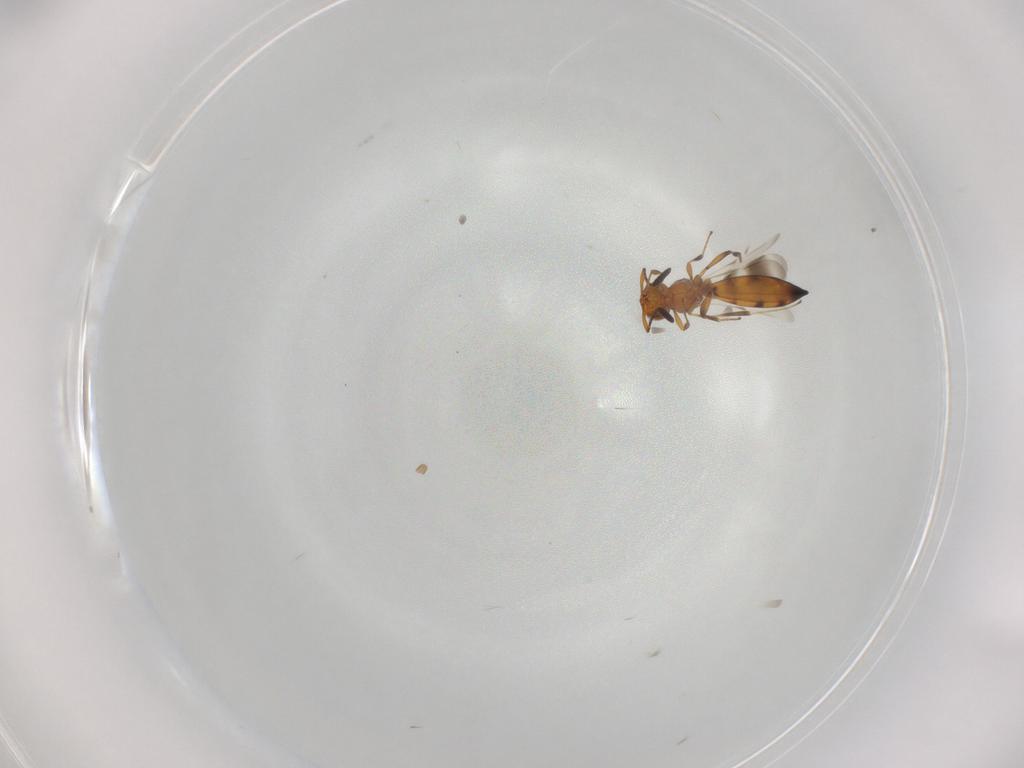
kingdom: Animalia
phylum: Arthropoda
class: Insecta
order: Hymenoptera
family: Scelionidae
